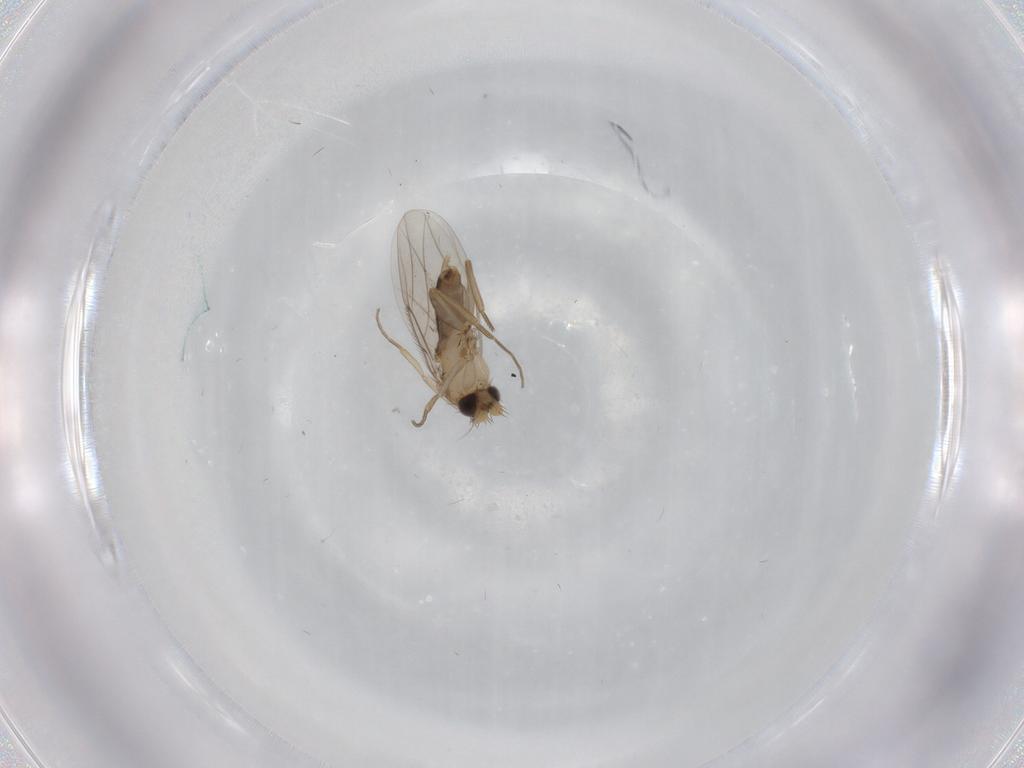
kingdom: Animalia
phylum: Arthropoda
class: Insecta
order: Diptera
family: Phoridae
